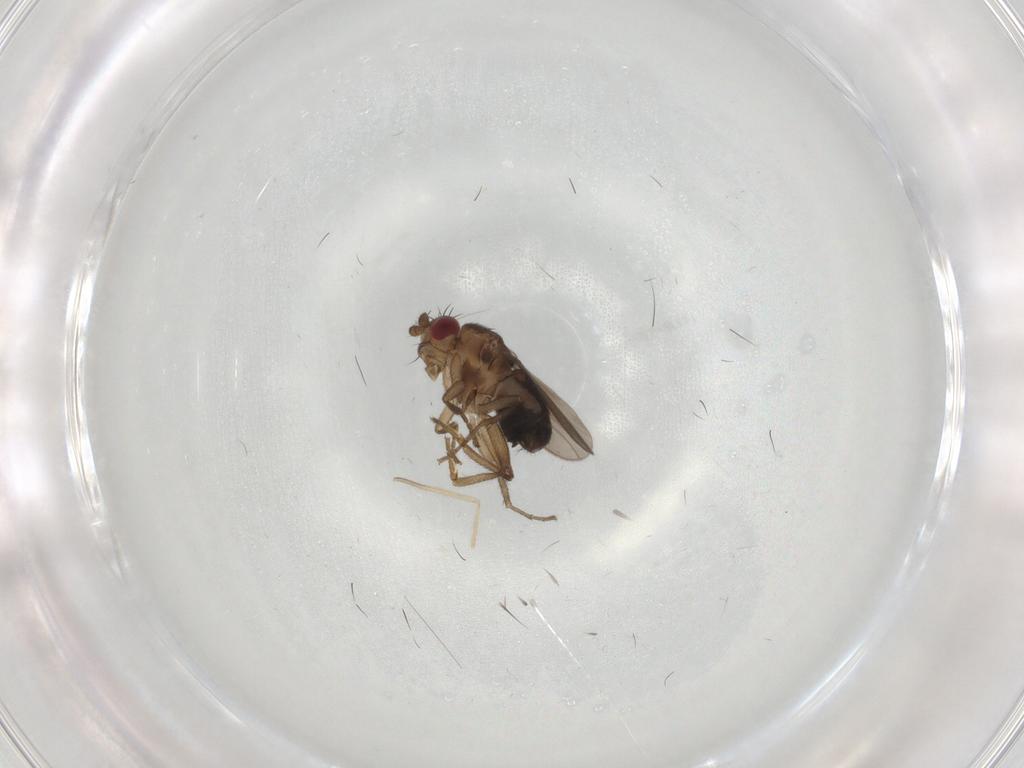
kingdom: Animalia
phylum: Arthropoda
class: Insecta
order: Diptera
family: Sphaeroceridae
